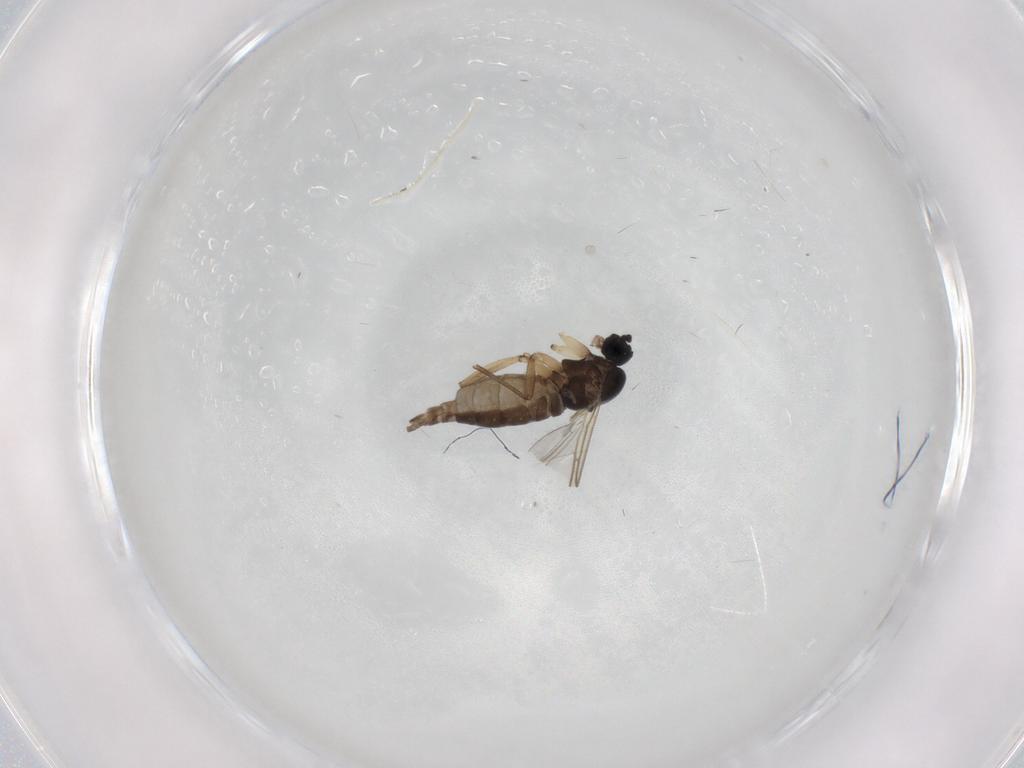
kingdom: Animalia
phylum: Arthropoda
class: Insecta
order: Diptera
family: Sciaridae
